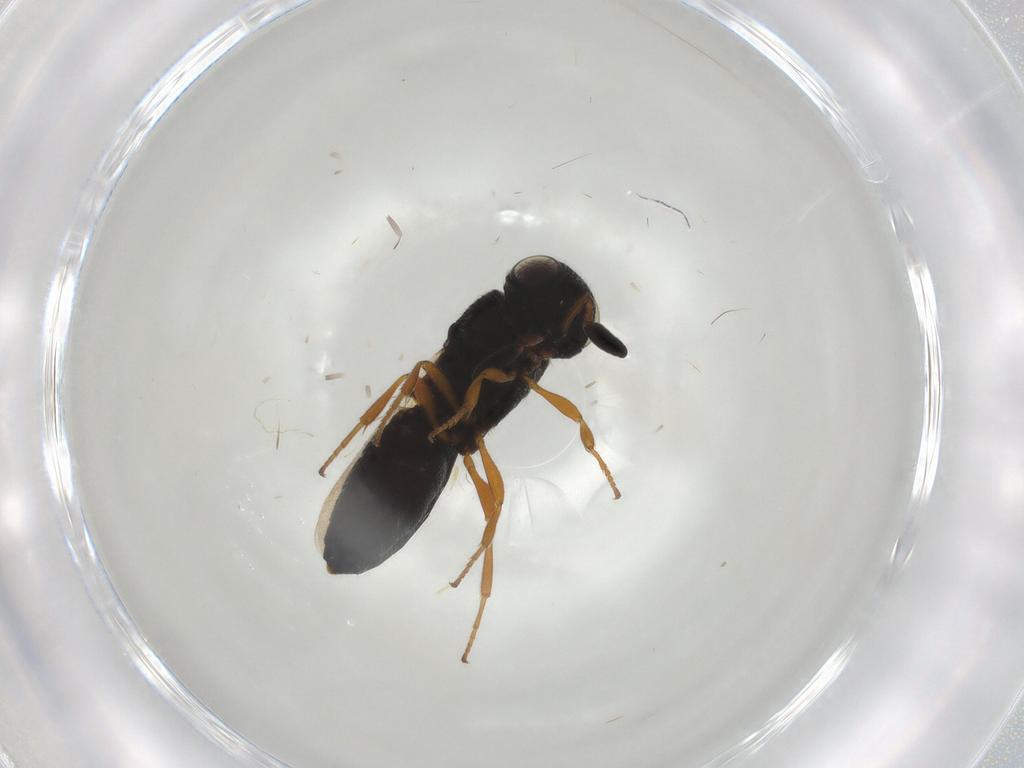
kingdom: Animalia
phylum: Arthropoda
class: Insecta
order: Hymenoptera
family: Scelionidae
